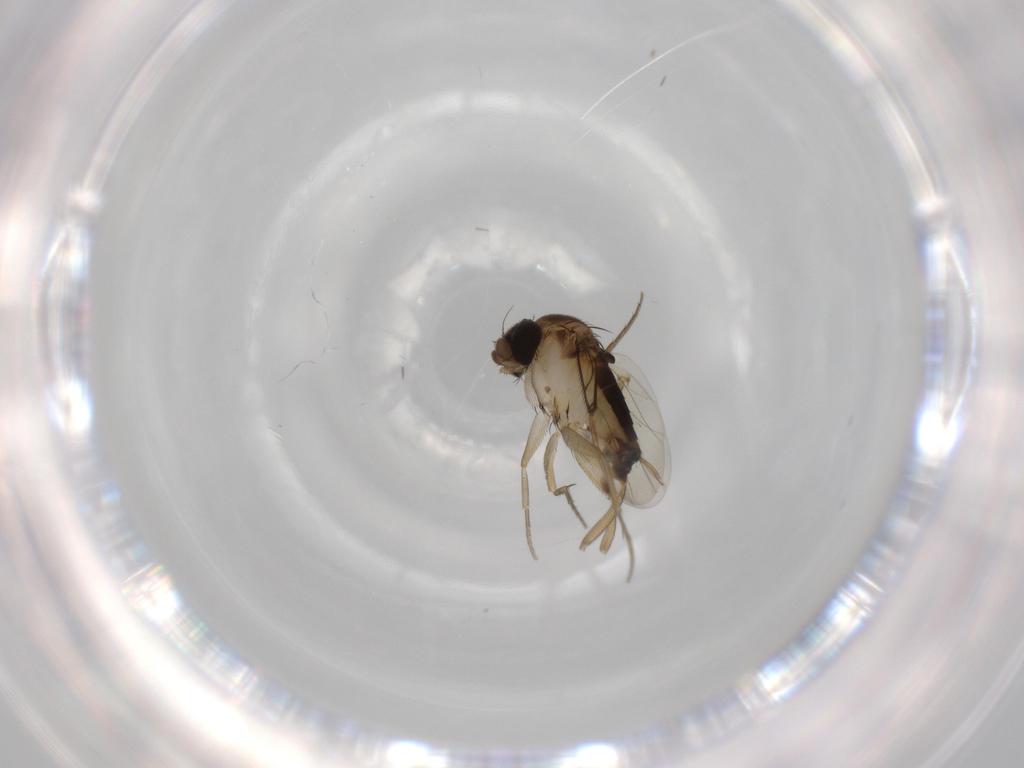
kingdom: Animalia
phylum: Arthropoda
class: Insecta
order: Diptera
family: Phoridae
